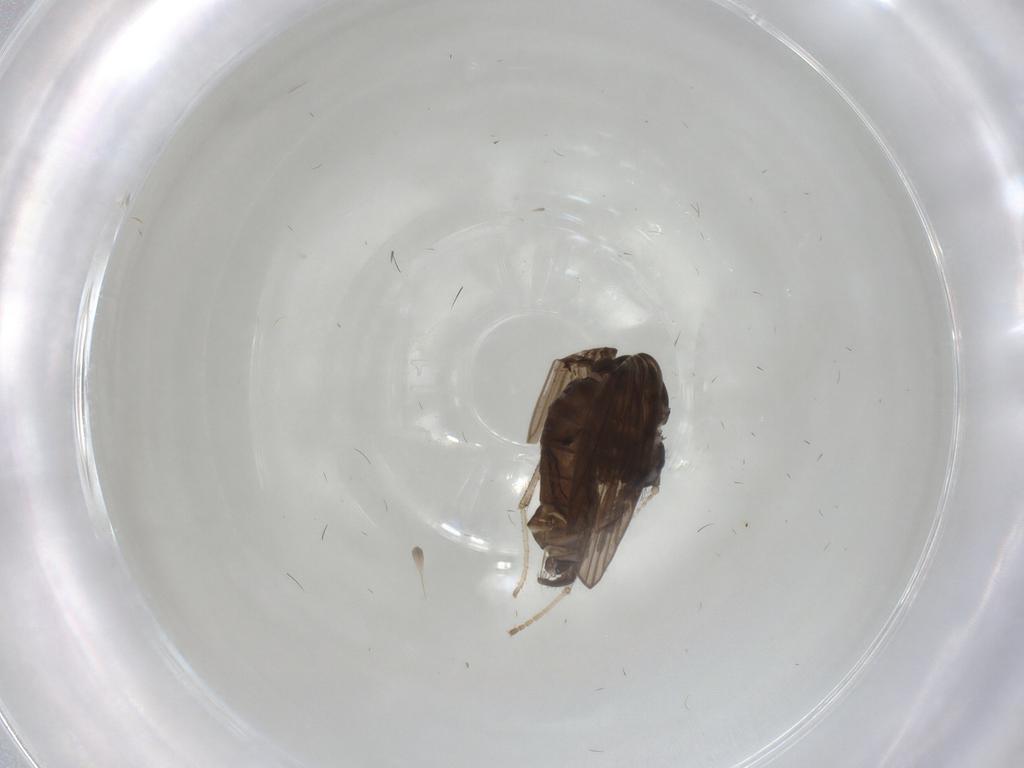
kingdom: Animalia
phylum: Arthropoda
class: Insecta
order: Diptera
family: Psychodidae
